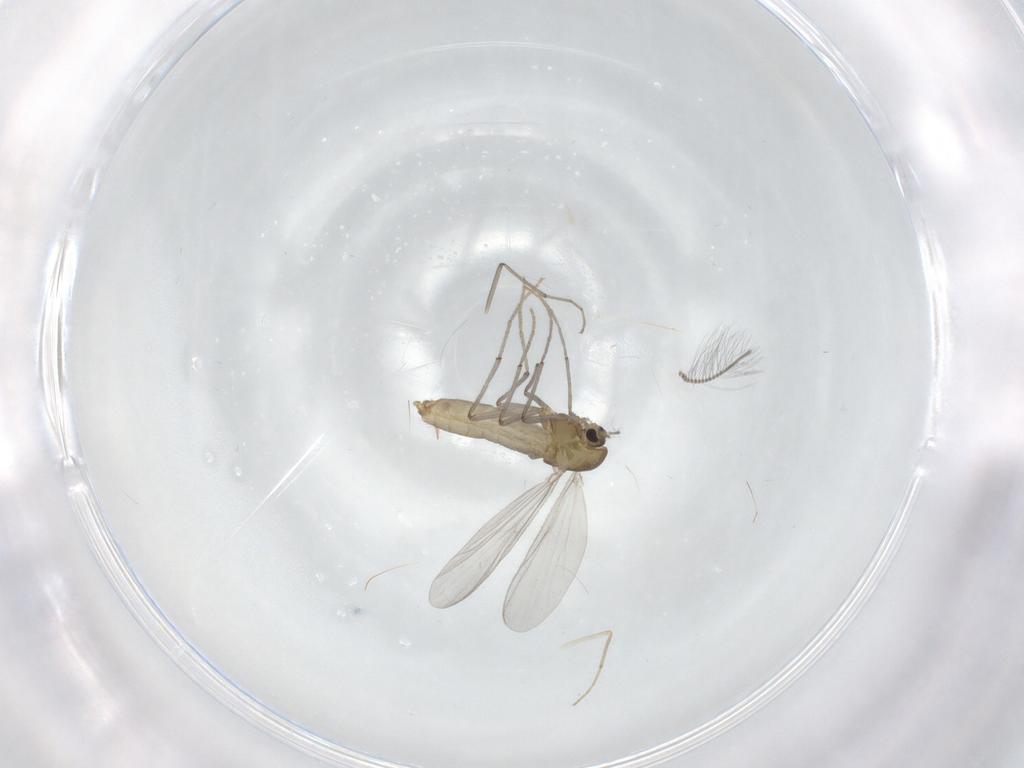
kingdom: Animalia
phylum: Arthropoda
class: Insecta
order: Diptera
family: Chironomidae
